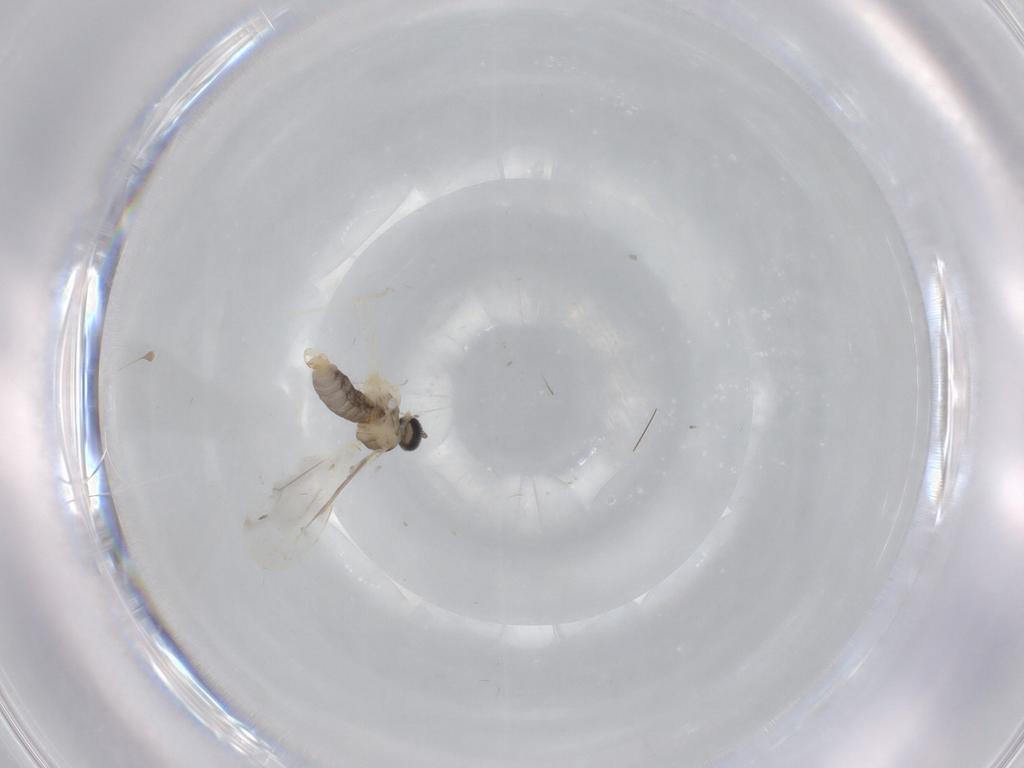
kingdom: Animalia
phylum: Arthropoda
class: Insecta
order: Diptera
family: Cecidomyiidae
